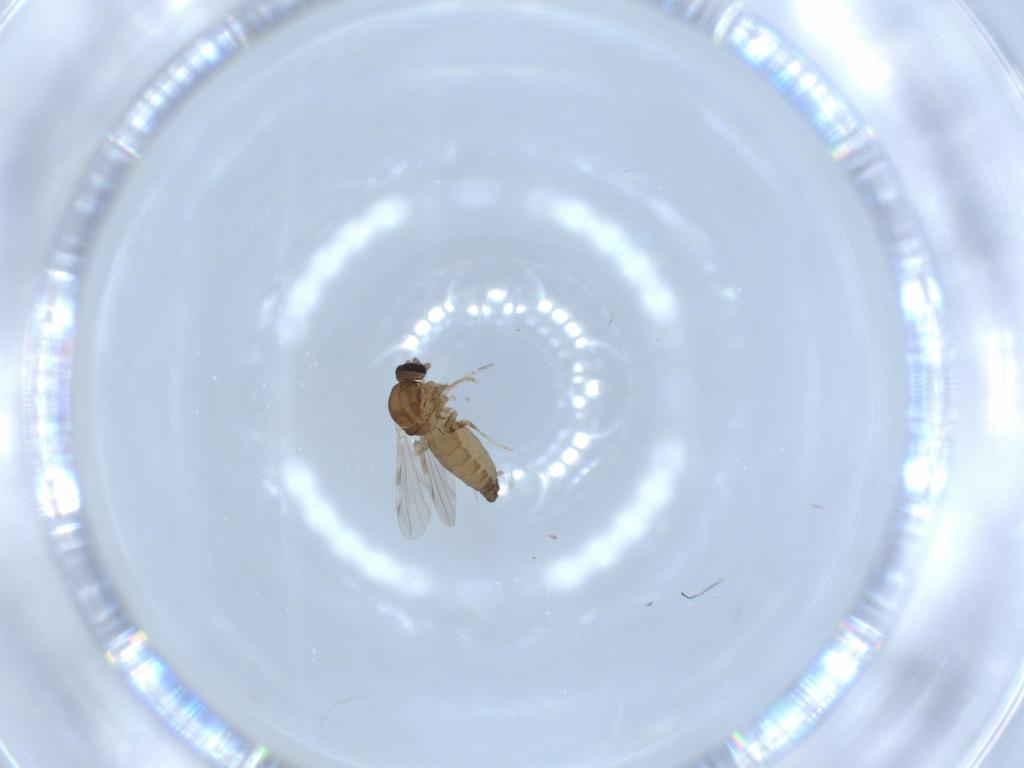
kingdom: Animalia
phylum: Arthropoda
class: Insecta
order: Diptera
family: Ceratopogonidae
